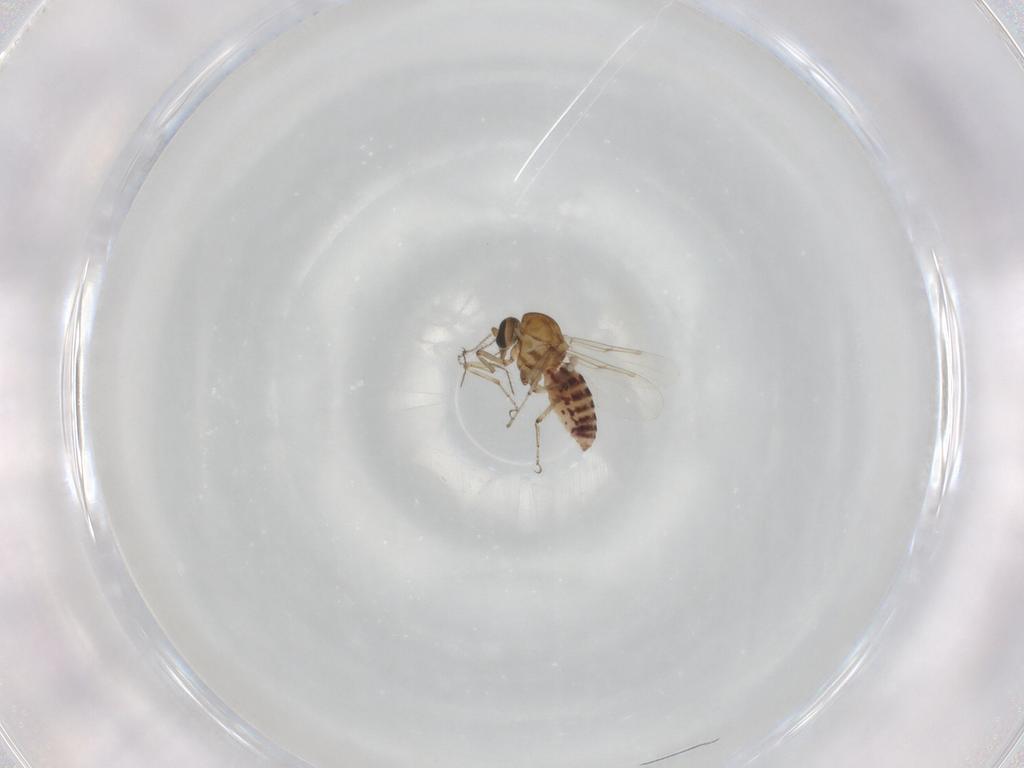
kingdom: Animalia
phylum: Arthropoda
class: Insecta
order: Diptera
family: Ceratopogonidae
